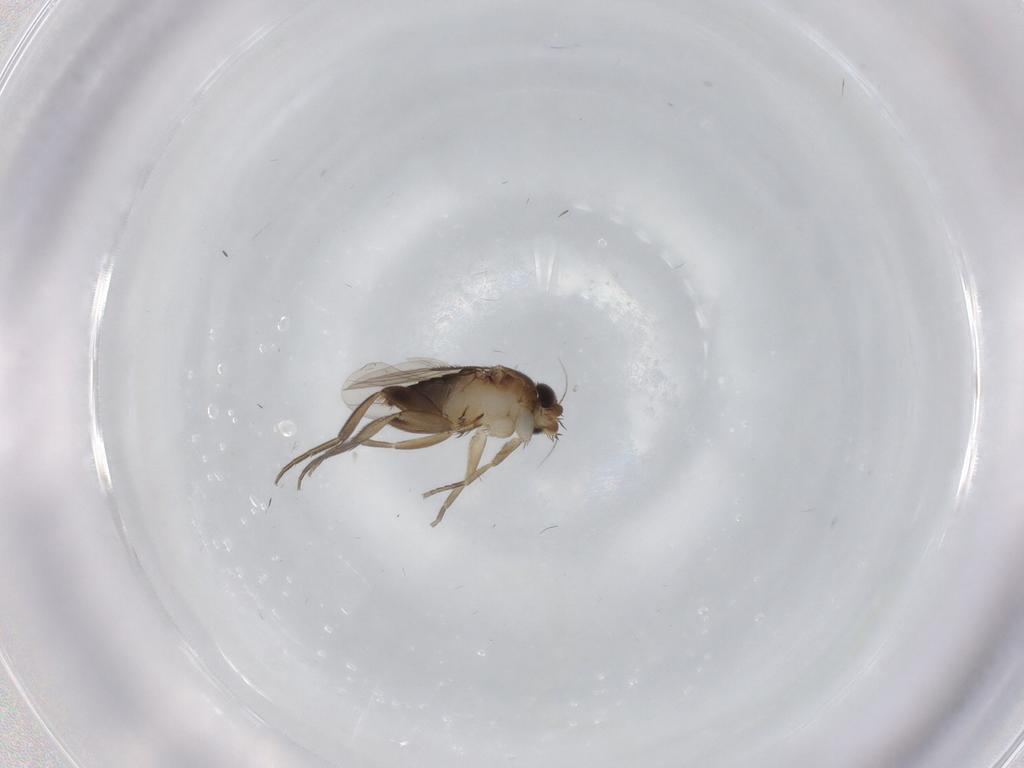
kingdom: Animalia
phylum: Arthropoda
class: Insecta
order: Diptera
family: Phoridae
